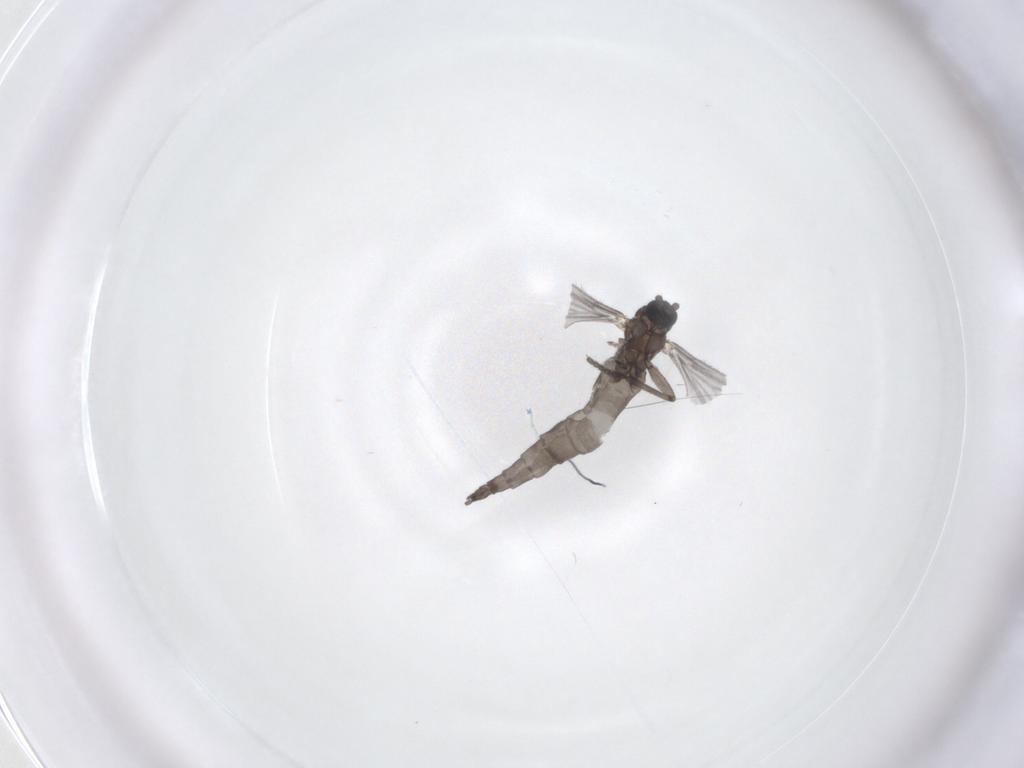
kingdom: Animalia
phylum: Arthropoda
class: Insecta
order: Diptera
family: Sciaridae
